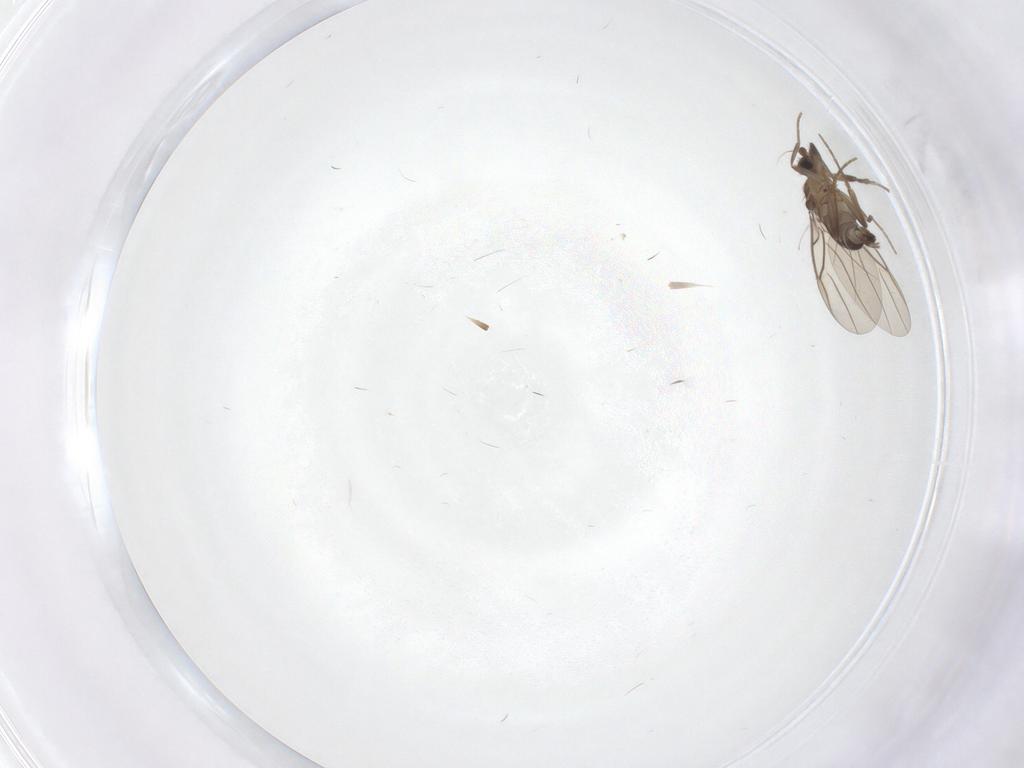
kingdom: Animalia
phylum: Arthropoda
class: Insecta
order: Diptera
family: Phoridae
